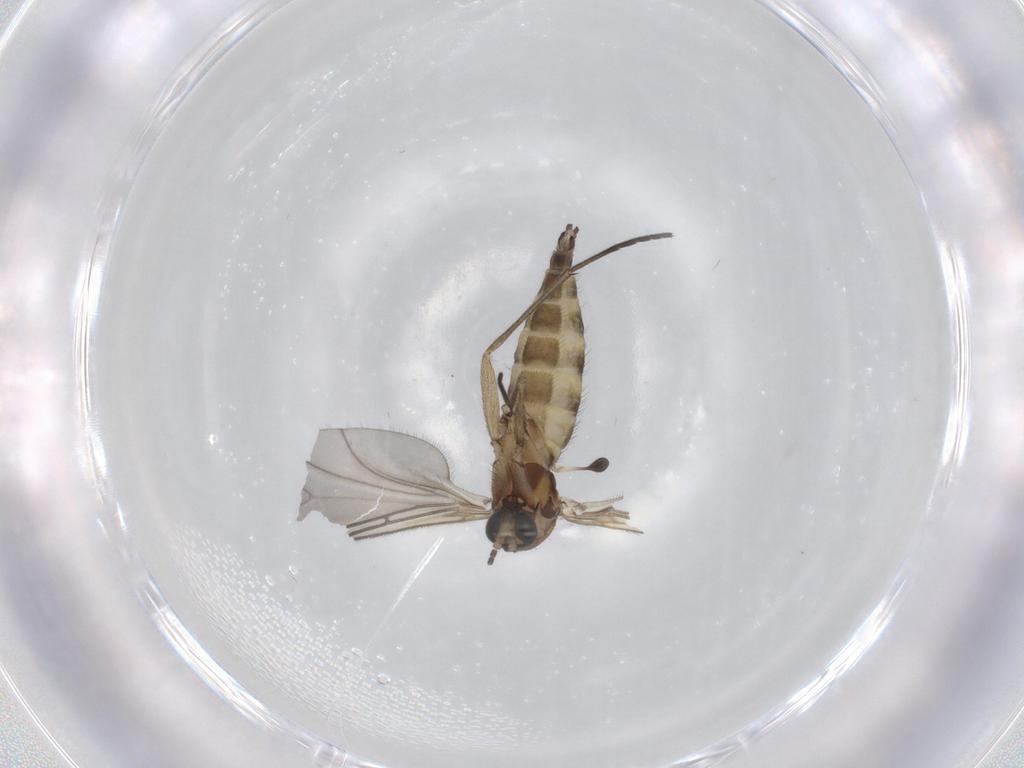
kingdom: Animalia
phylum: Arthropoda
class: Insecta
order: Diptera
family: Sciaridae
